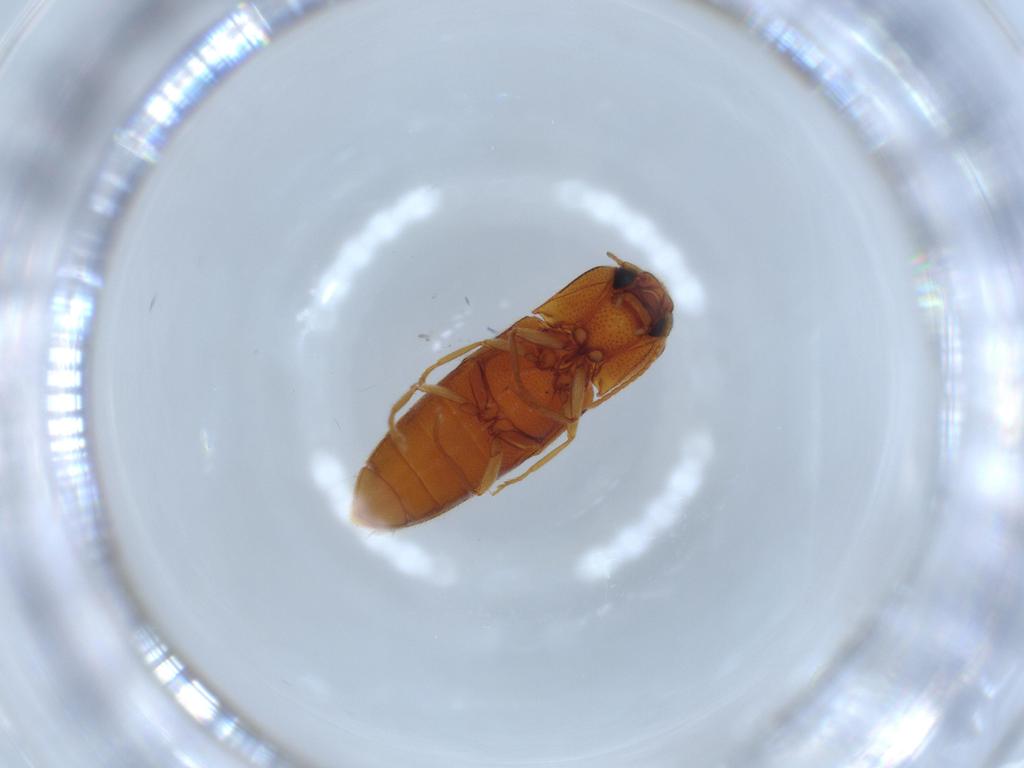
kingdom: Animalia
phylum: Arthropoda
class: Insecta
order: Coleoptera
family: Elateridae
